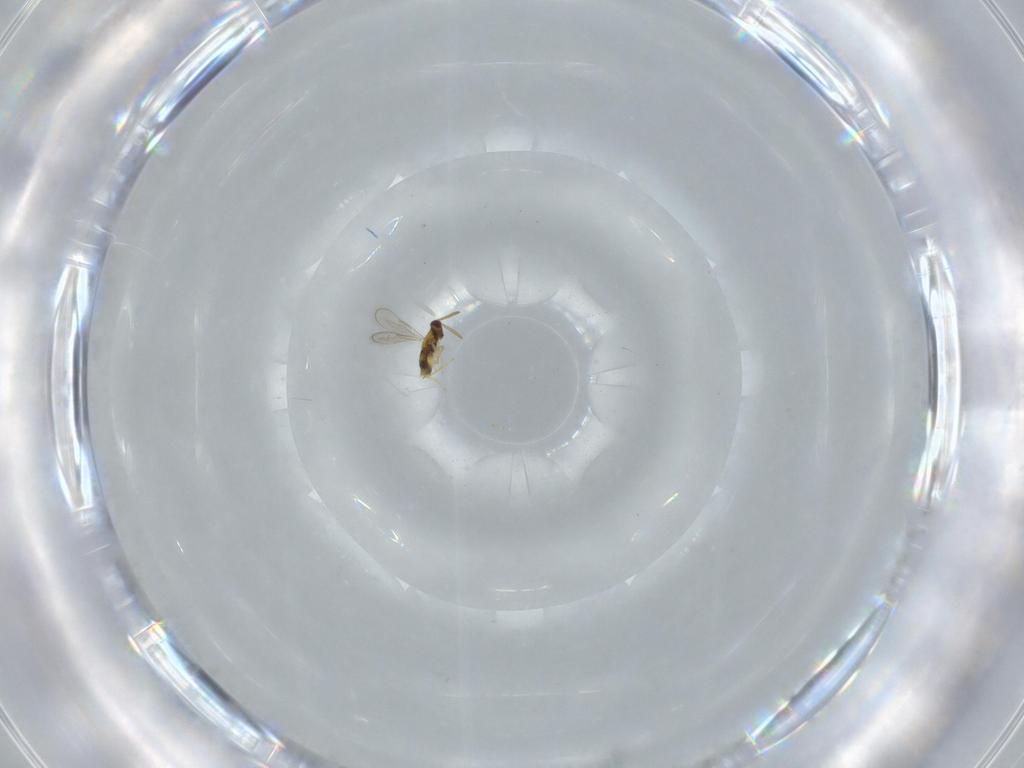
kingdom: Animalia
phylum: Arthropoda
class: Insecta
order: Hymenoptera
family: Aphelinidae
